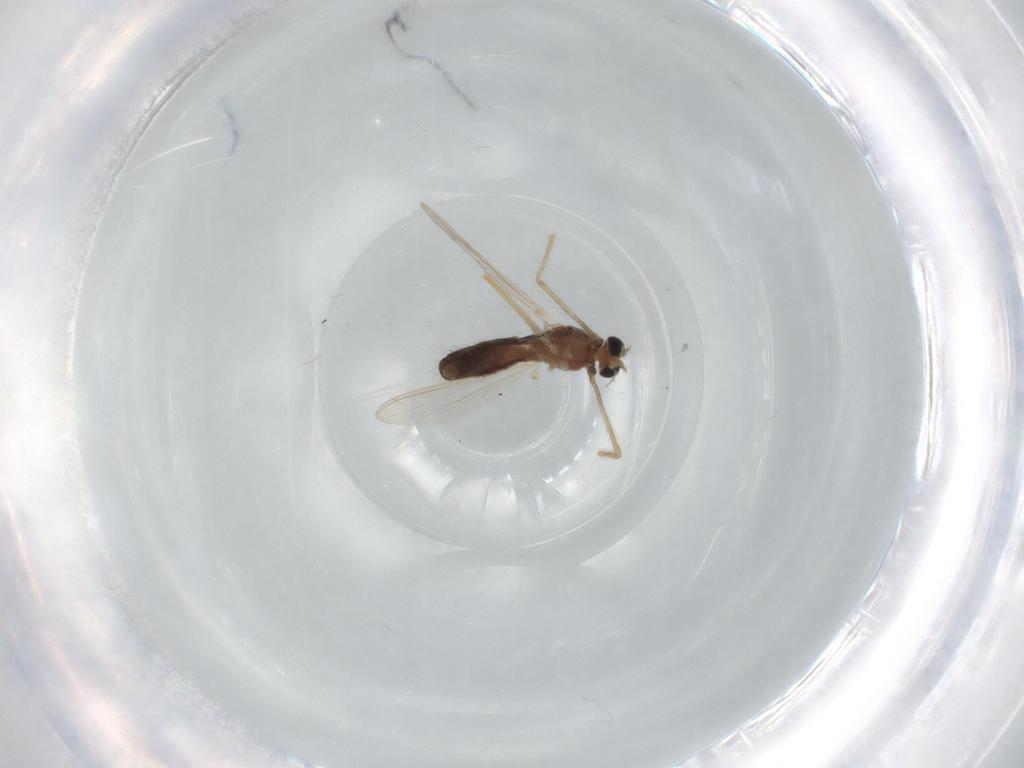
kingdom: Animalia
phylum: Arthropoda
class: Insecta
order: Diptera
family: Chironomidae
